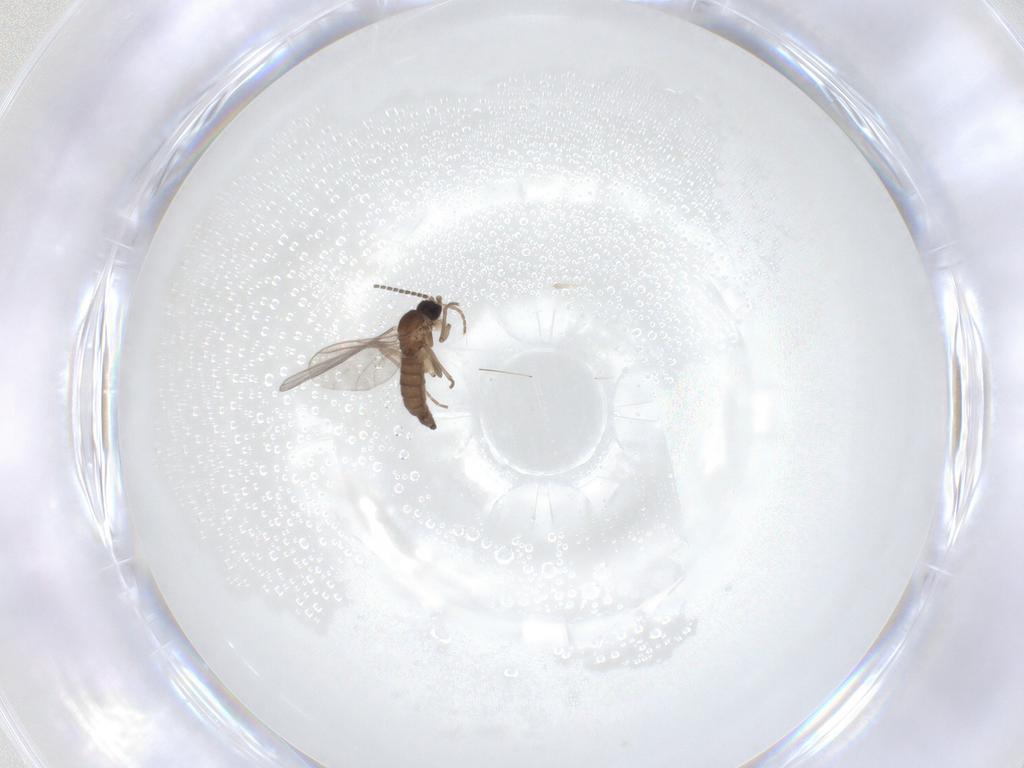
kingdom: Animalia
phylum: Arthropoda
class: Insecta
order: Diptera
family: Sciaridae
